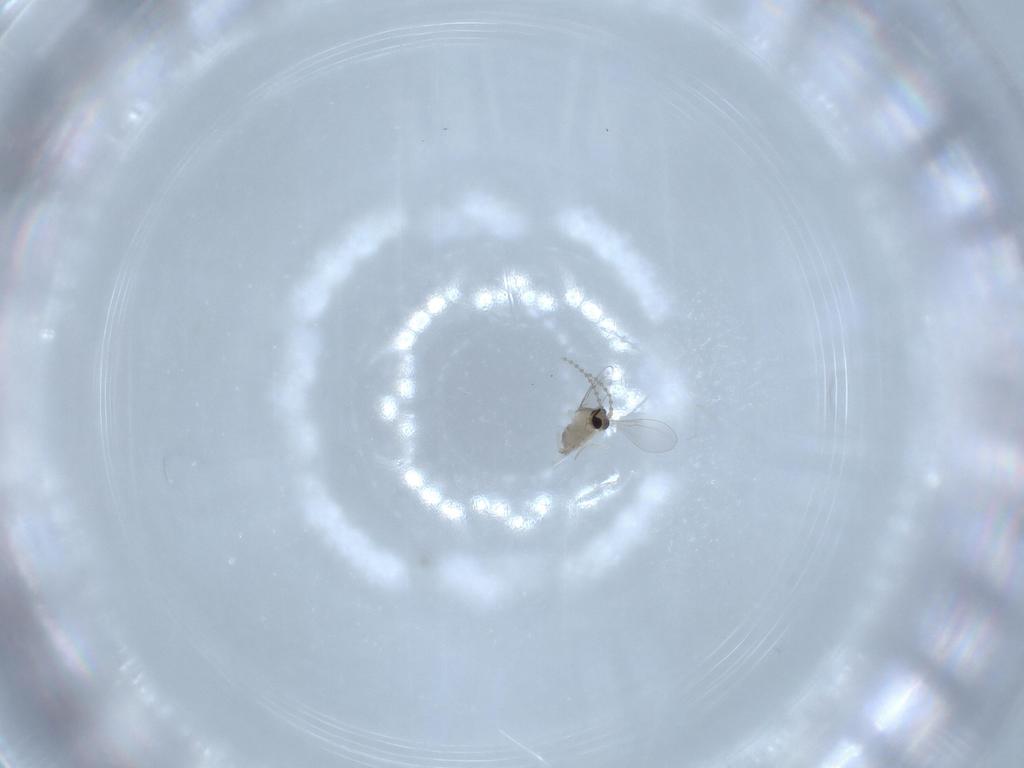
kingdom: Animalia
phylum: Arthropoda
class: Insecta
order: Diptera
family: Cecidomyiidae
